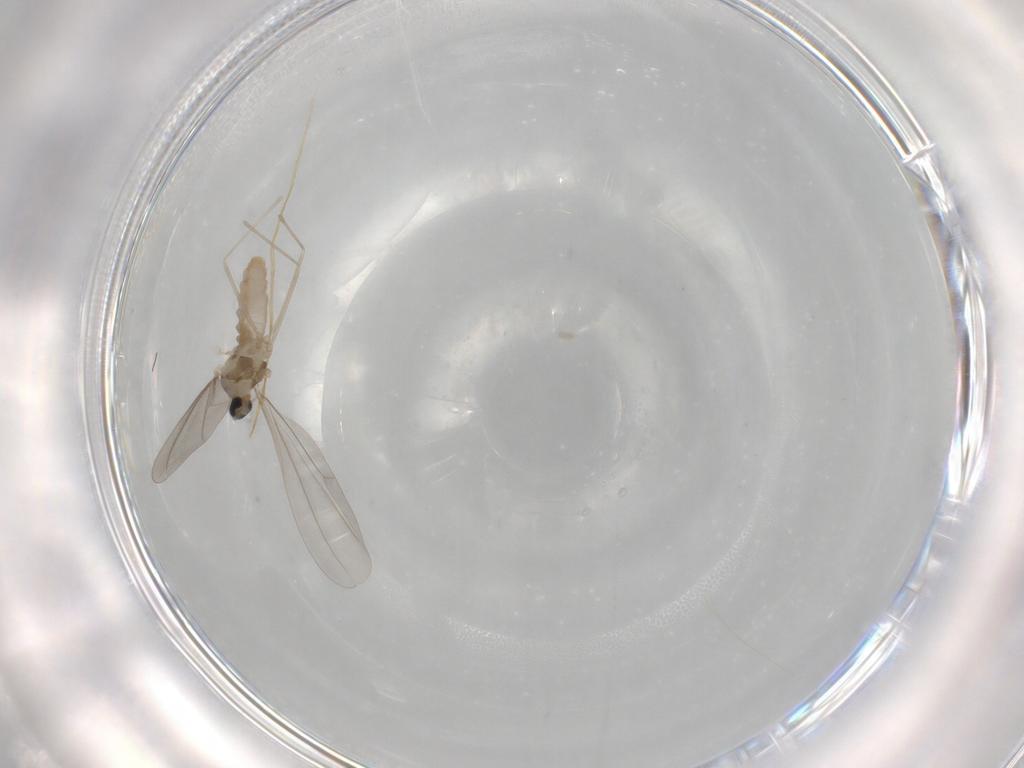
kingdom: Animalia
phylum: Arthropoda
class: Insecta
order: Diptera
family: Cecidomyiidae
